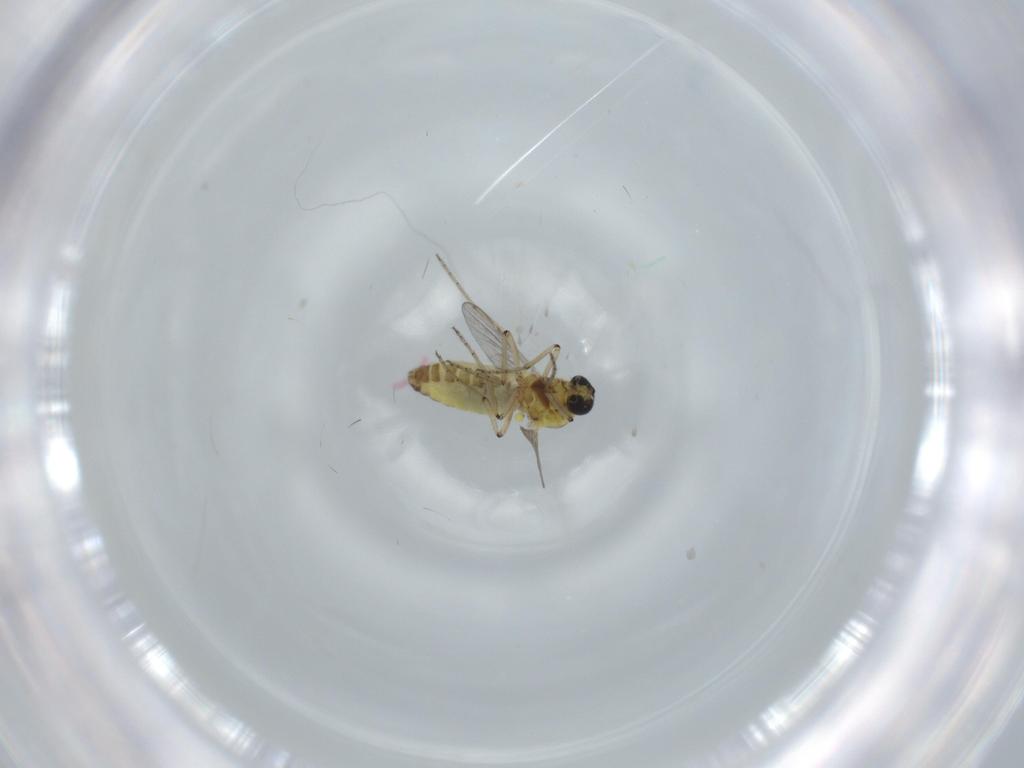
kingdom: Animalia
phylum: Arthropoda
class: Insecta
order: Diptera
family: Ceratopogonidae
